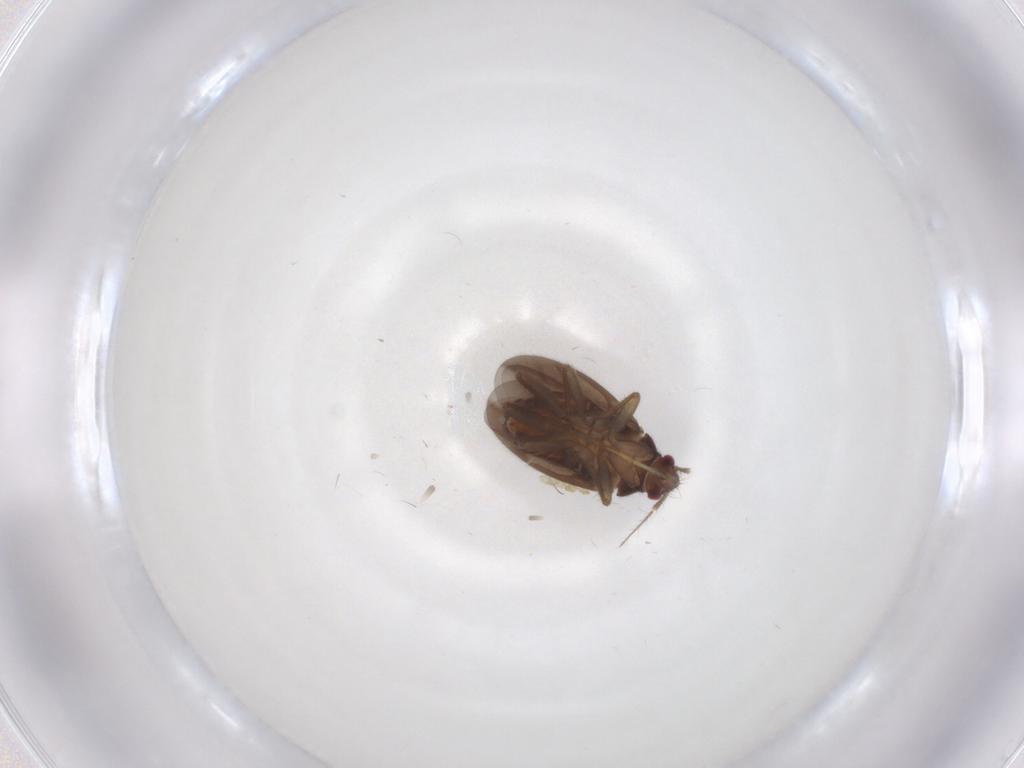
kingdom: Animalia
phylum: Arthropoda
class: Insecta
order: Hemiptera
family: Ceratocombidae
